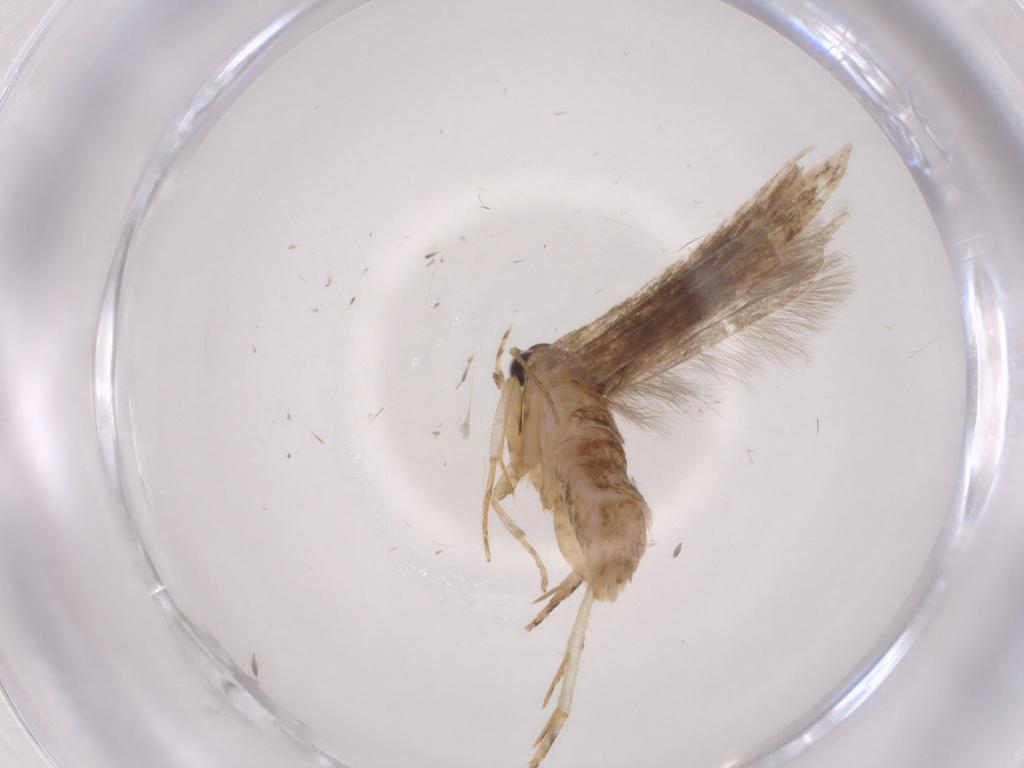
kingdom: Animalia
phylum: Arthropoda
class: Insecta
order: Lepidoptera
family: Gelechiidae
